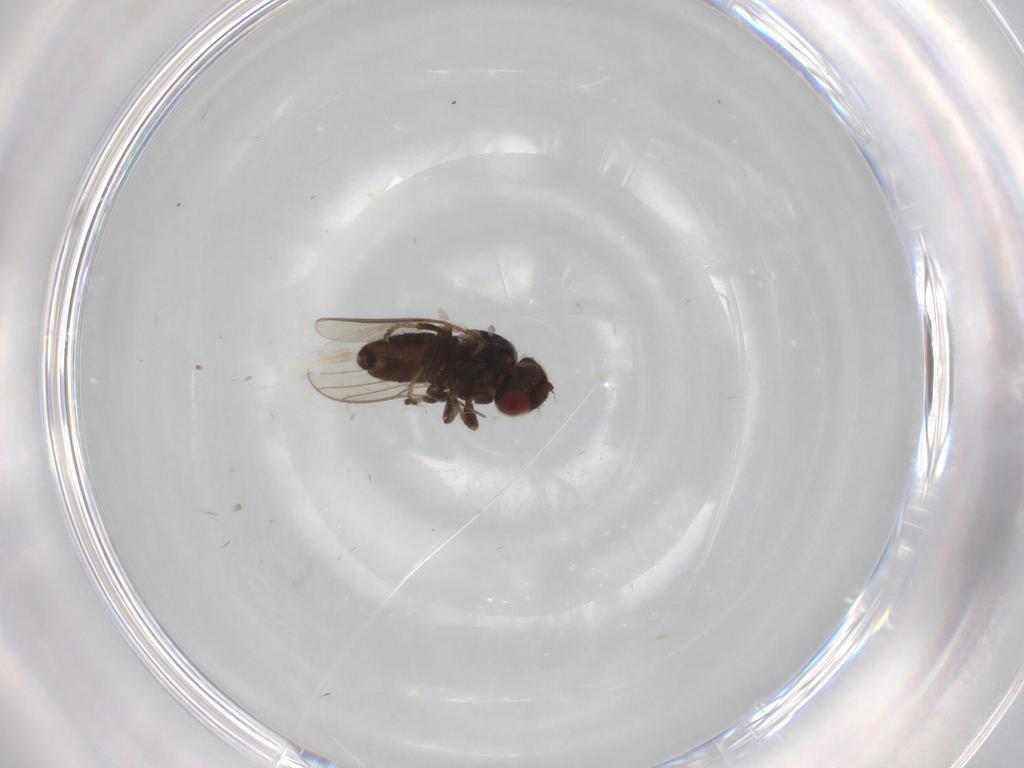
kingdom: Animalia
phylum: Arthropoda
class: Insecta
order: Diptera
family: Chloropidae
